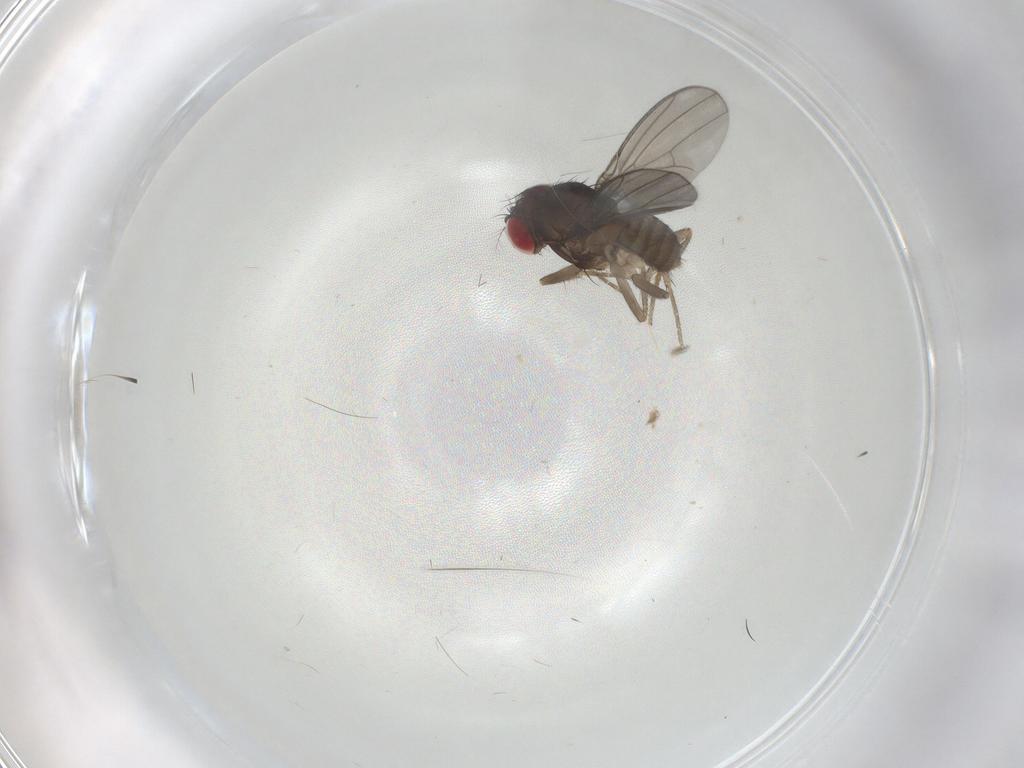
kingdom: Animalia
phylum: Arthropoda
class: Insecta
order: Diptera
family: Drosophilidae
